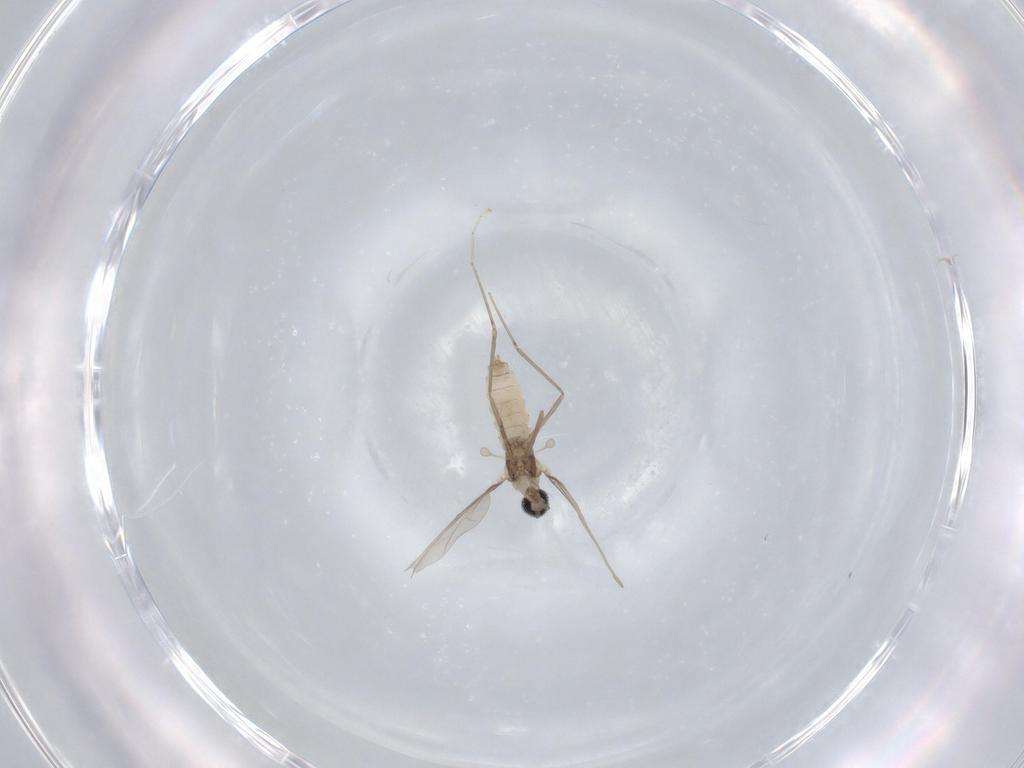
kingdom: Animalia
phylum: Arthropoda
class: Insecta
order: Diptera
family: Cecidomyiidae
